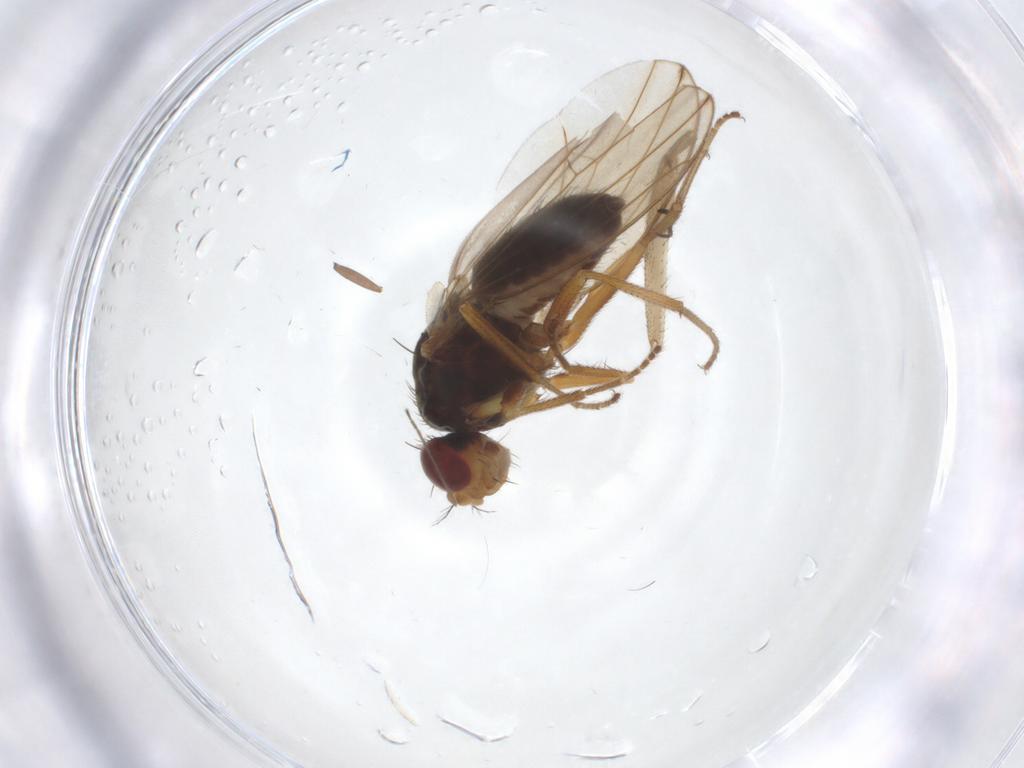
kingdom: Animalia
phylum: Arthropoda
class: Insecta
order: Diptera
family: Drosophilidae
